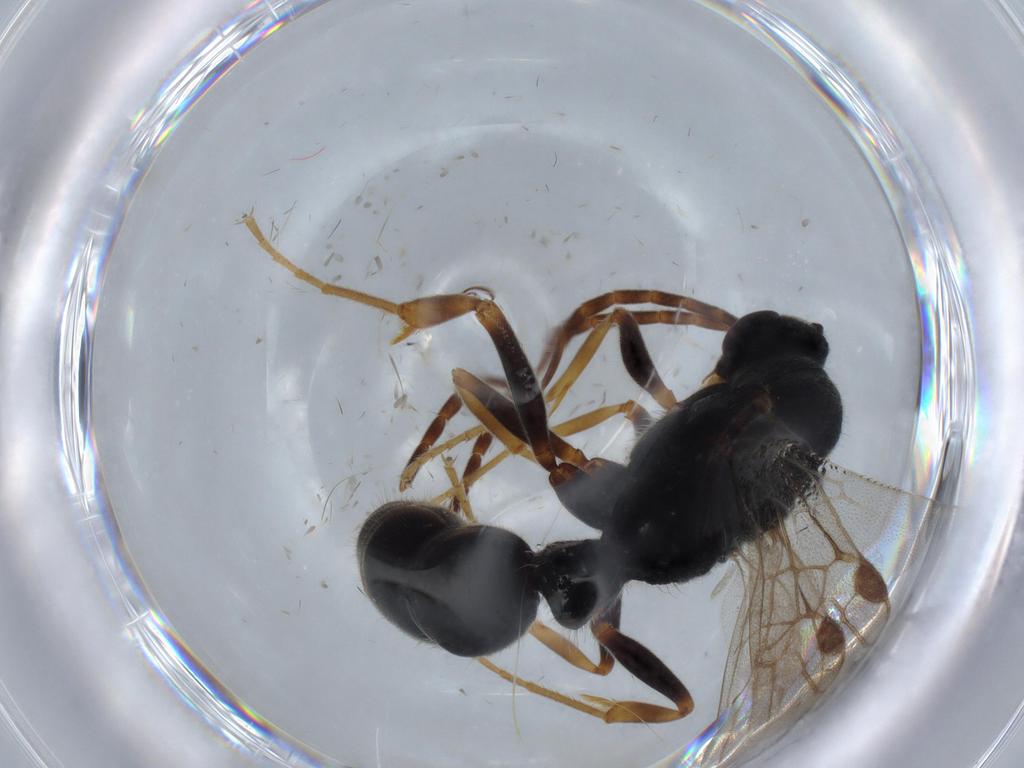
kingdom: Animalia
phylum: Arthropoda
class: Insecta
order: Hymenoptera
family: Formicidae
